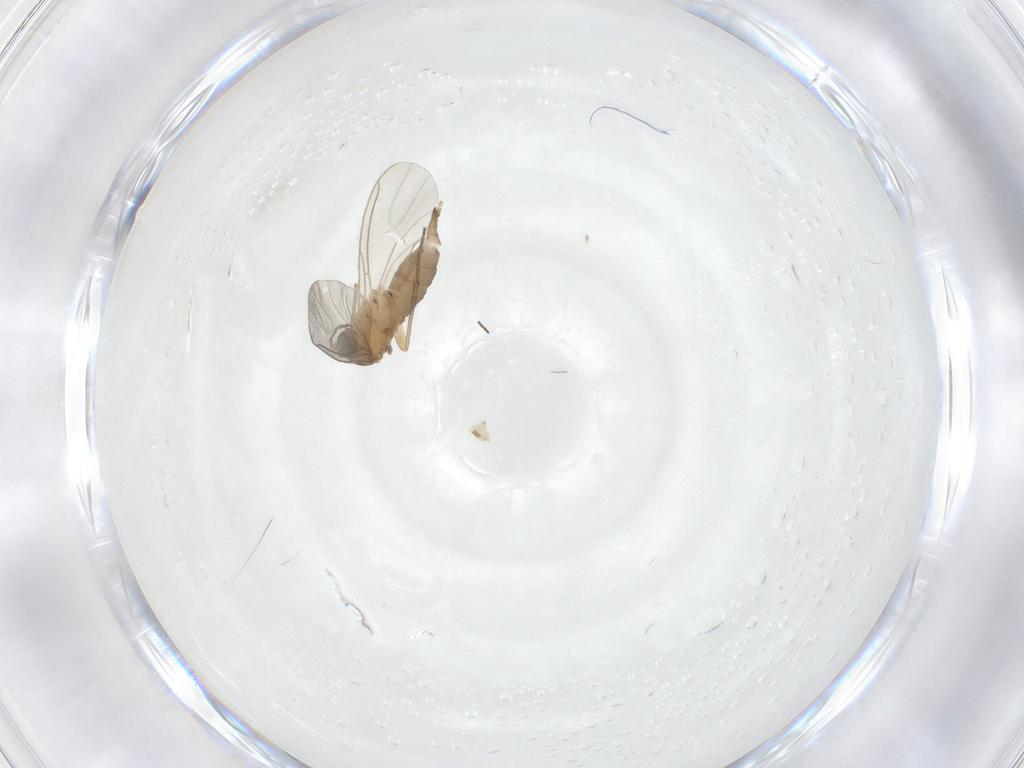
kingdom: Animalia
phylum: Arthropoda
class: Insecta
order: Diptera
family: Sciaridae
